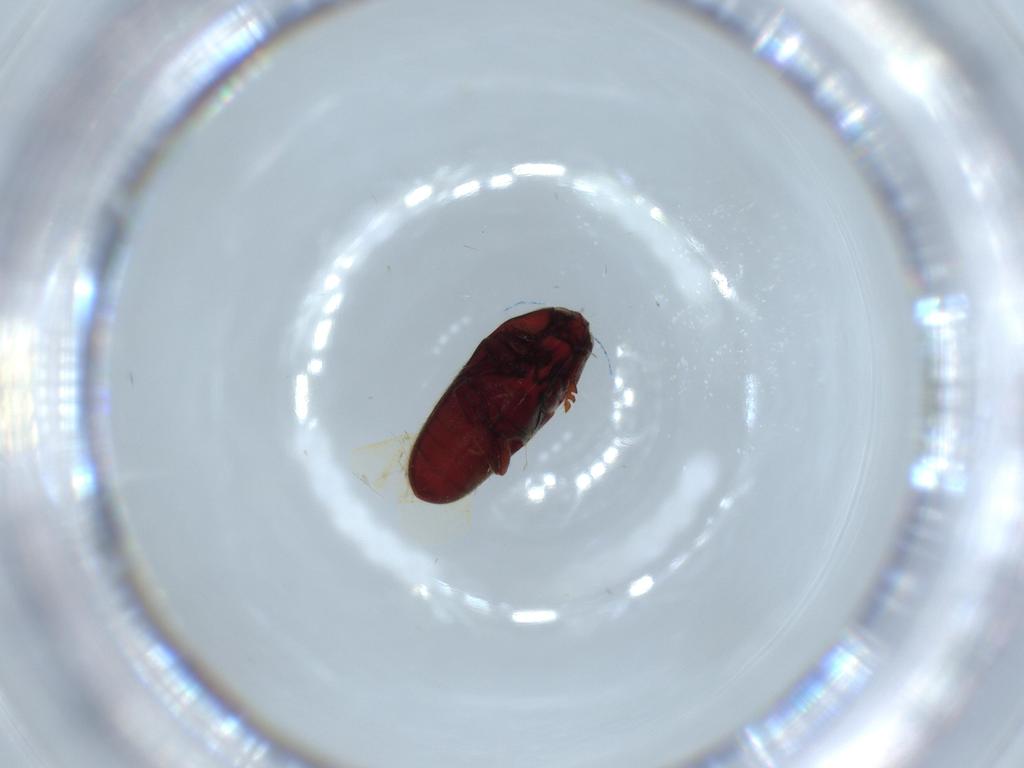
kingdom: Animalia
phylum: Arthropoda
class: Insecta
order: Coleoptera
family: Throscidae
